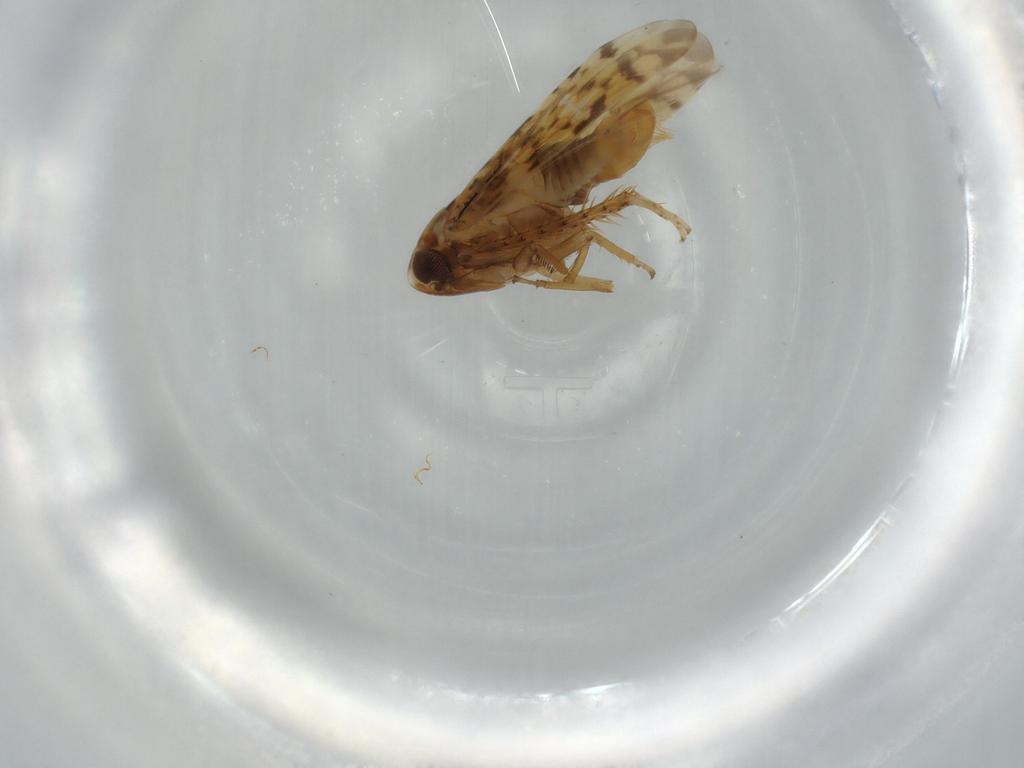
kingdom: Animalia
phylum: Arthropoda
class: Insecta
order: Hemiptera
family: Cicadellidae
